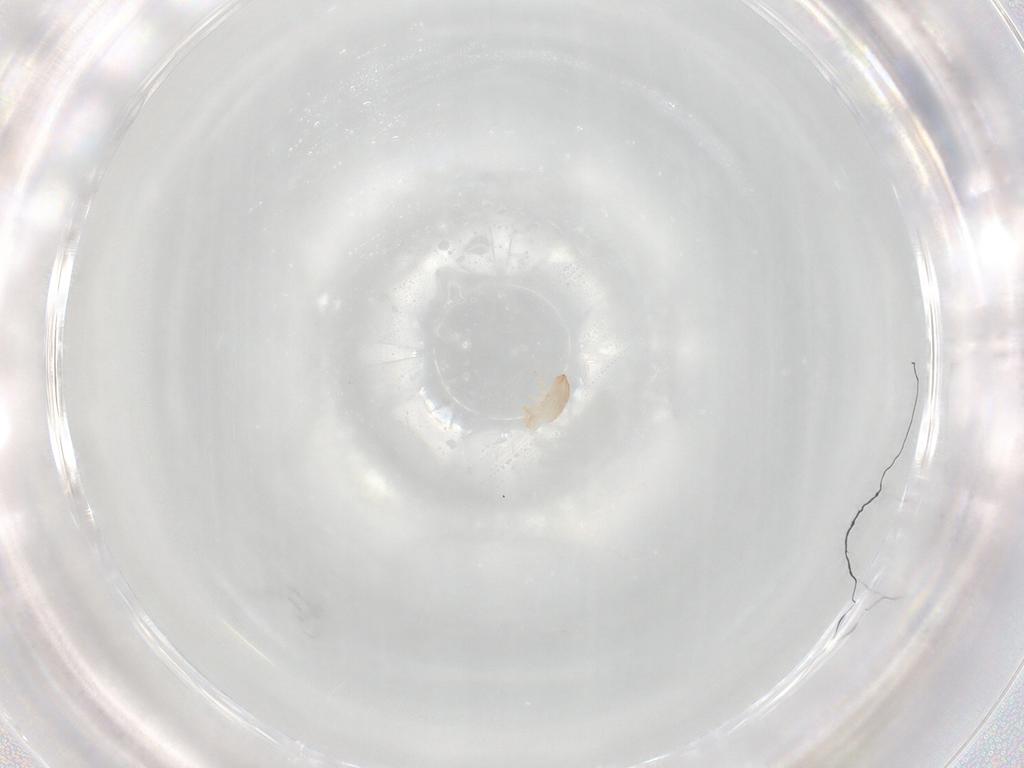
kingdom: Animalia
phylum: Arthropoda
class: Arachnida
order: Mesostigmata
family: Zerconidae
